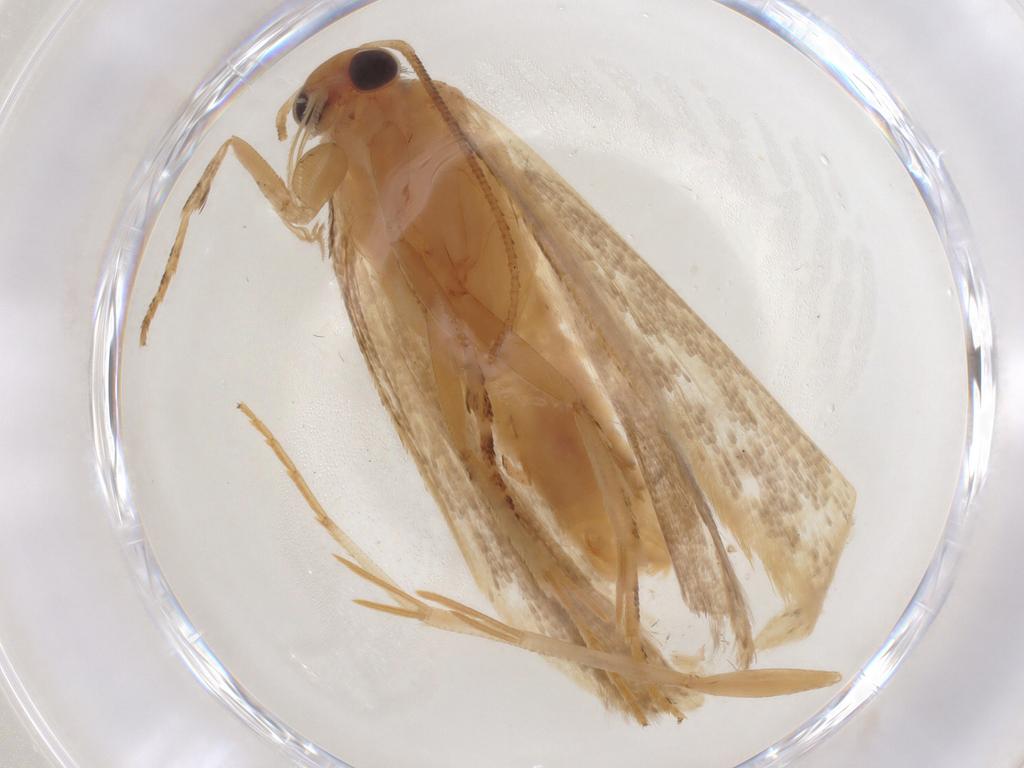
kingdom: Animalia
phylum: Arthropoda
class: Insecta
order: Lepidoptera
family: Gelechiidae
